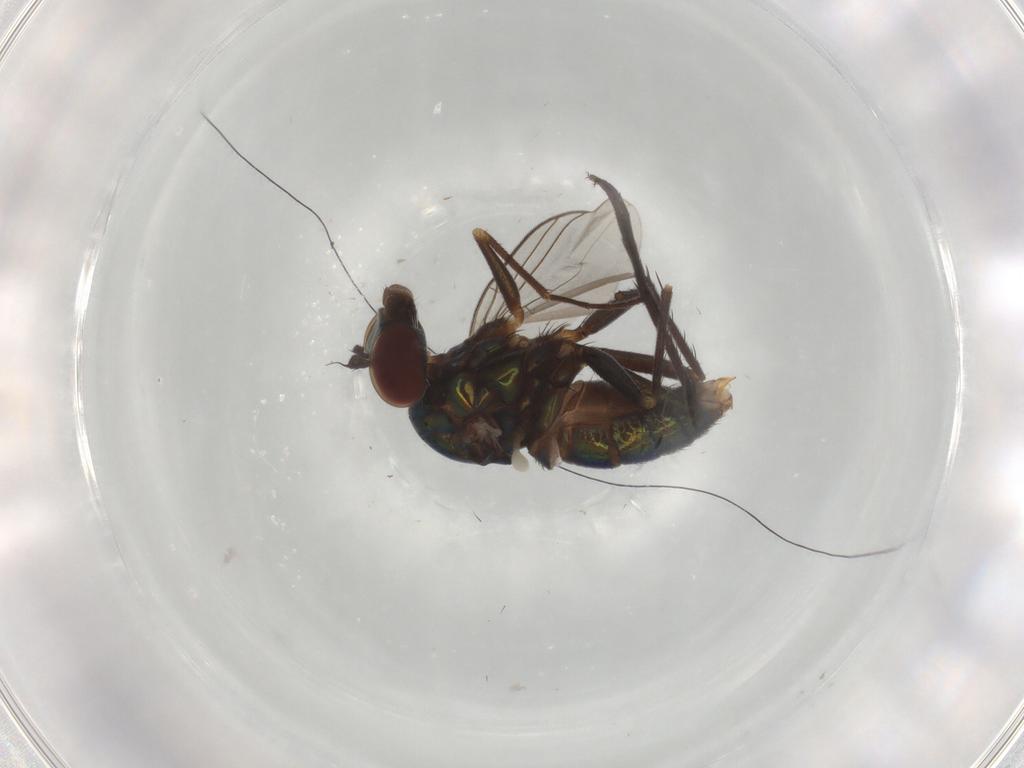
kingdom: Animalia
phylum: Arthropoda
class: Insecta
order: Diptera
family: Dolichopodidae
